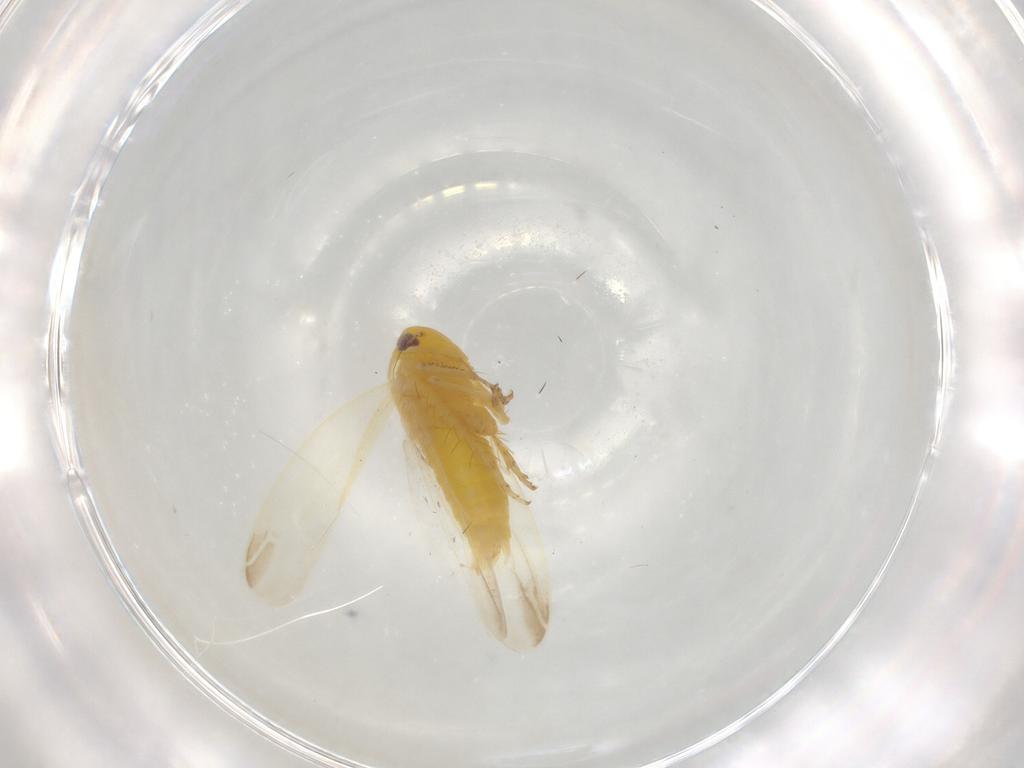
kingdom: Animalia
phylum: Arthropoda
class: Insecta
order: Hemiptera
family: Cicadellidae
